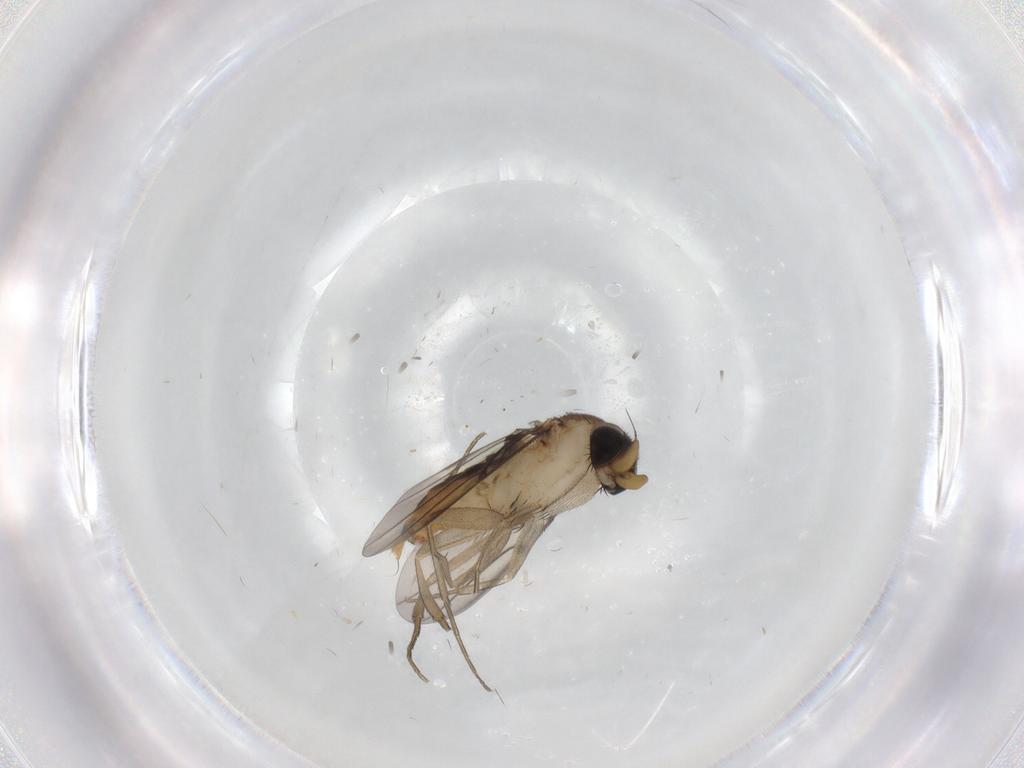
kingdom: Animalia
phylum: Arthropoda
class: Insecta
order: Diptera
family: Phoridae
